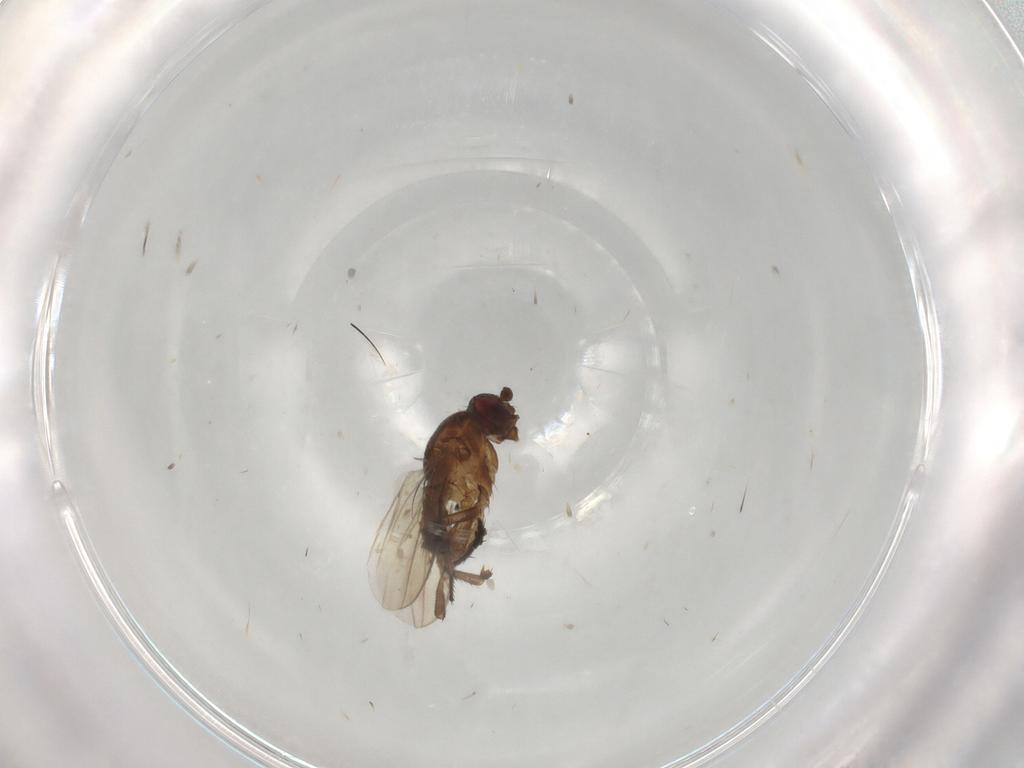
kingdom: Animalia
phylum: Arthropoda
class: Insecta
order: Diptera
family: Sphaeroceridae
